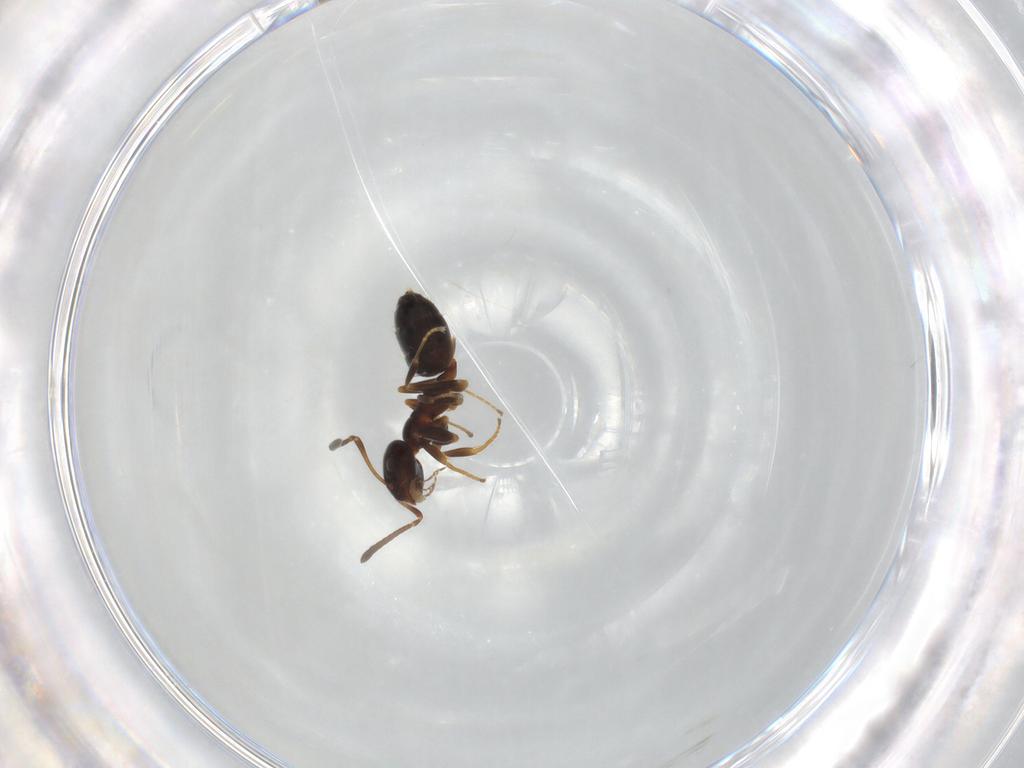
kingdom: Animalia
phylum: Arthropoda
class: Insecta
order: Hymenoptera
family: Formicidae
